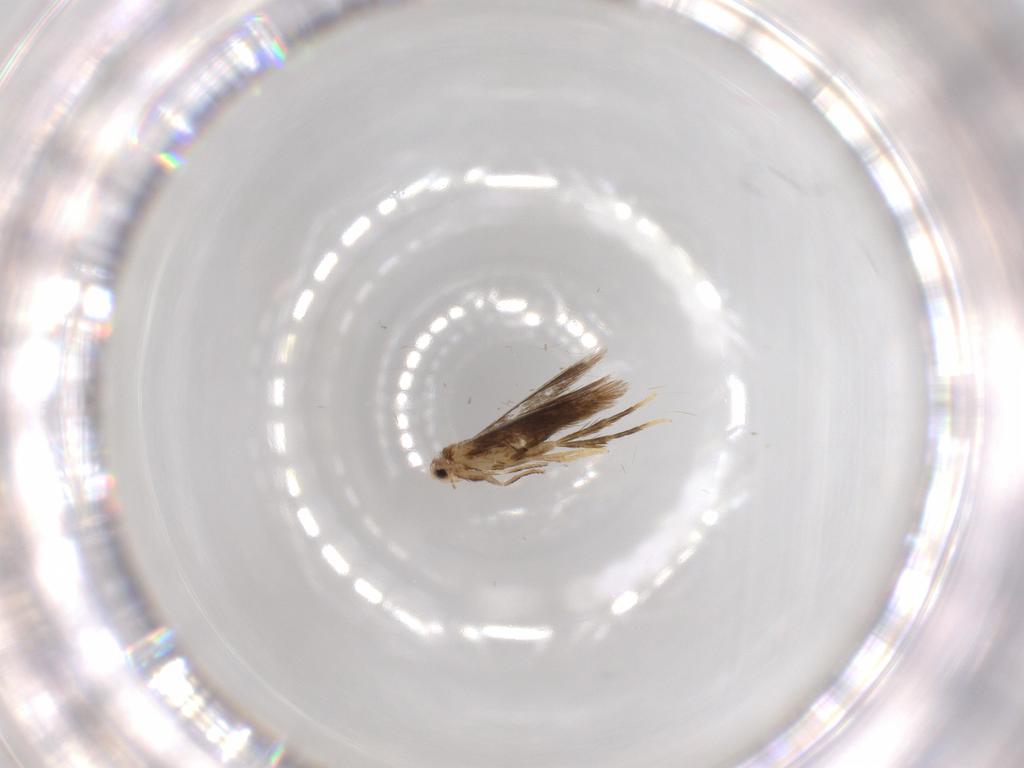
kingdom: Animalia
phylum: Arthropoda
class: Insecta
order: Lepidoptera
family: Nepticulidae
